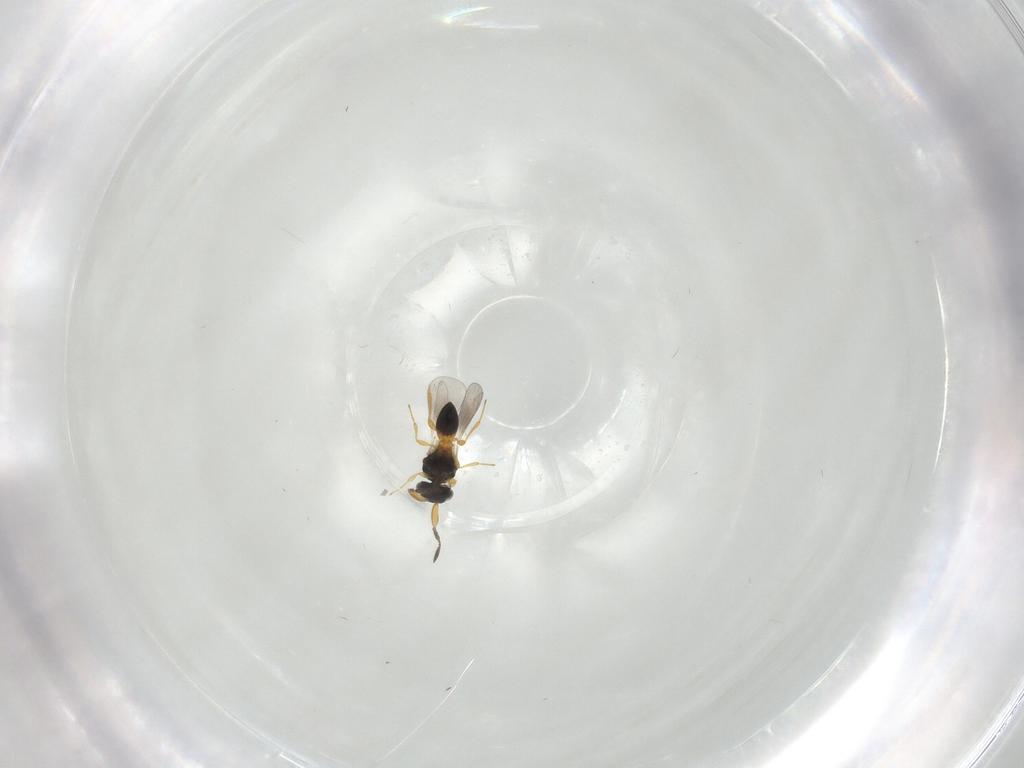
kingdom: Animalia
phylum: Arthropoda
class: Insecta
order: Hymenoptera
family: Platygastridae
